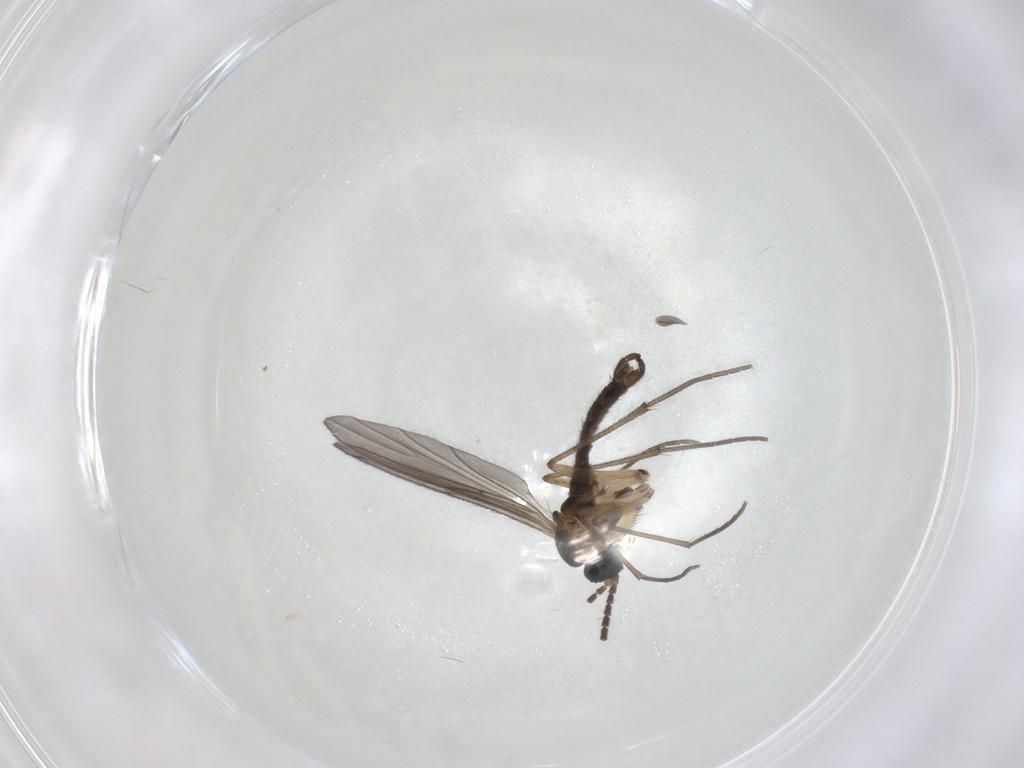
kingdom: Animalia
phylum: Arthropoda
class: Insecta
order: Diptera
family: Sciaridae
